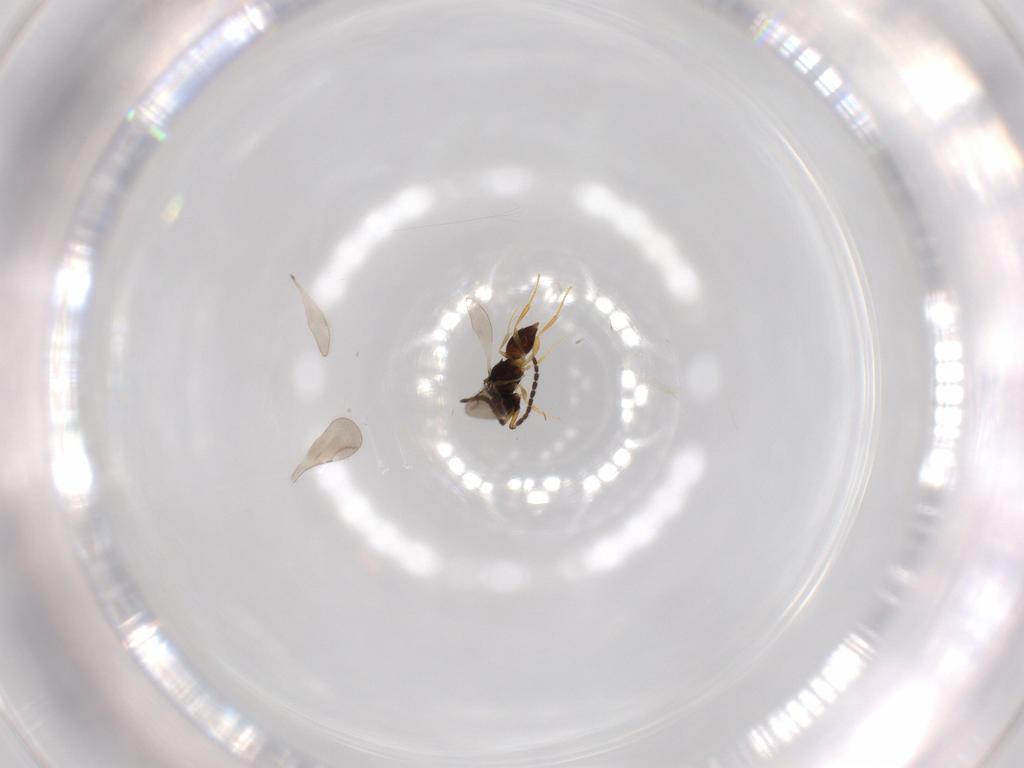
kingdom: Animalia
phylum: Arthropoda
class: Insecta
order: Hymenoptera
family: Ceraphronidae
